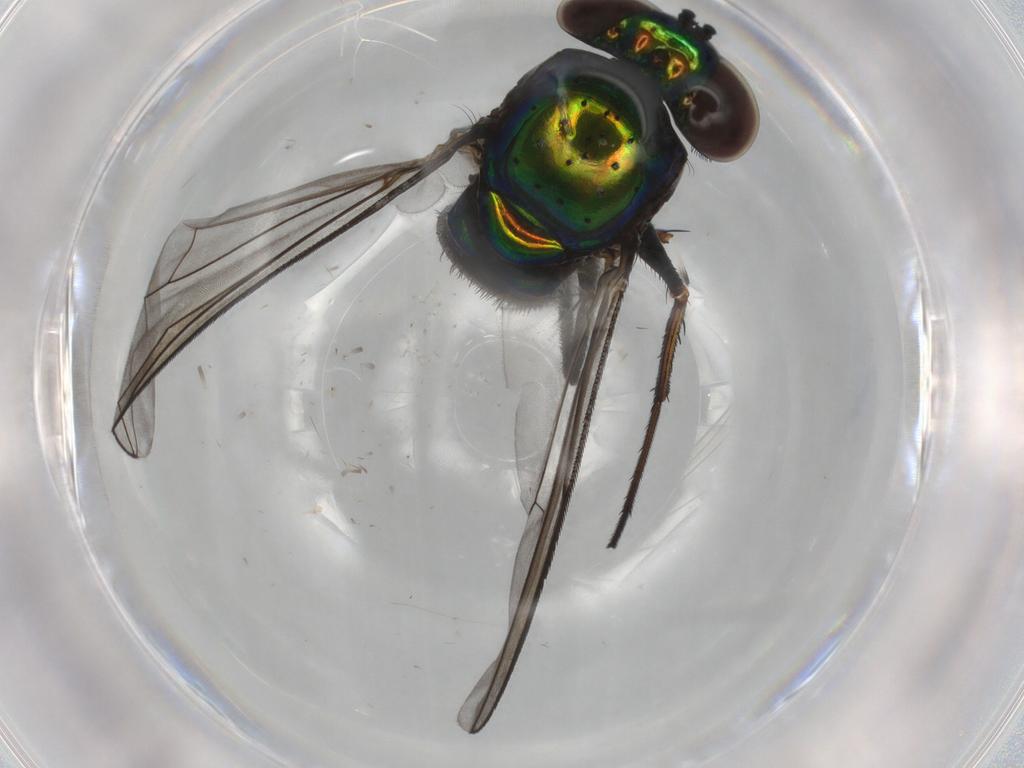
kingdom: Animalia
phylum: Arthropoda
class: Insecta
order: Diptera
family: Sphaeroceridae
